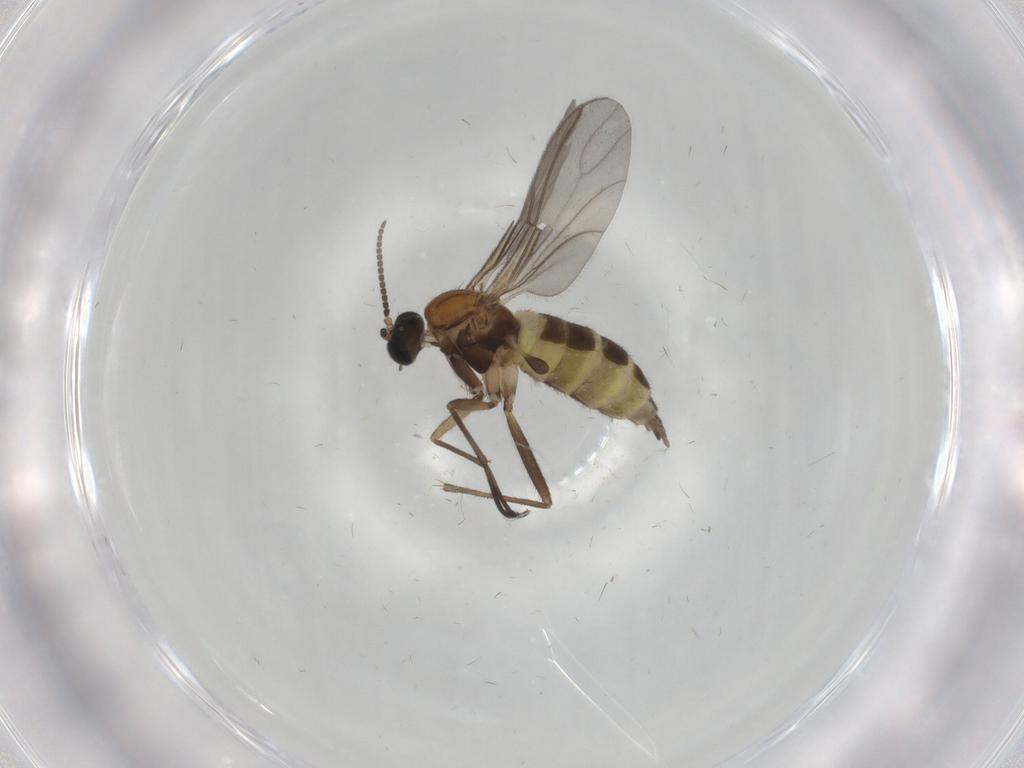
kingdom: Animalia
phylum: Arthropoda
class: Insecta
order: Diptera
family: Sciaridae
